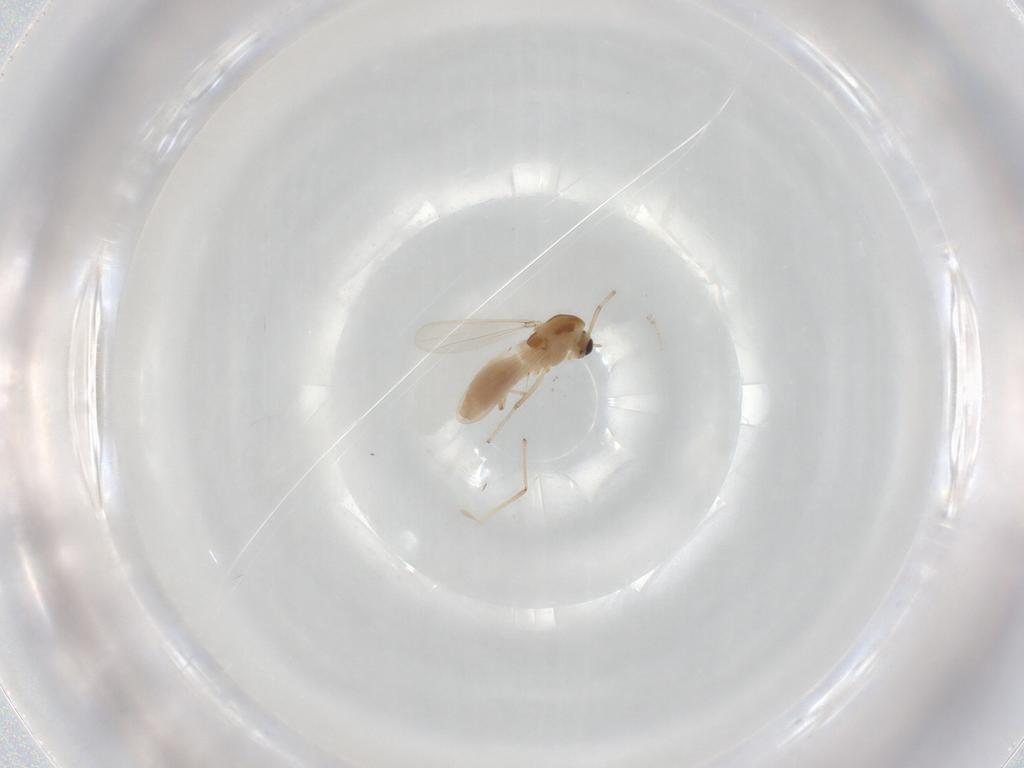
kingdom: Animalia
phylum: Arthropoda
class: Insecta
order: Diptera
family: Chironomidae
